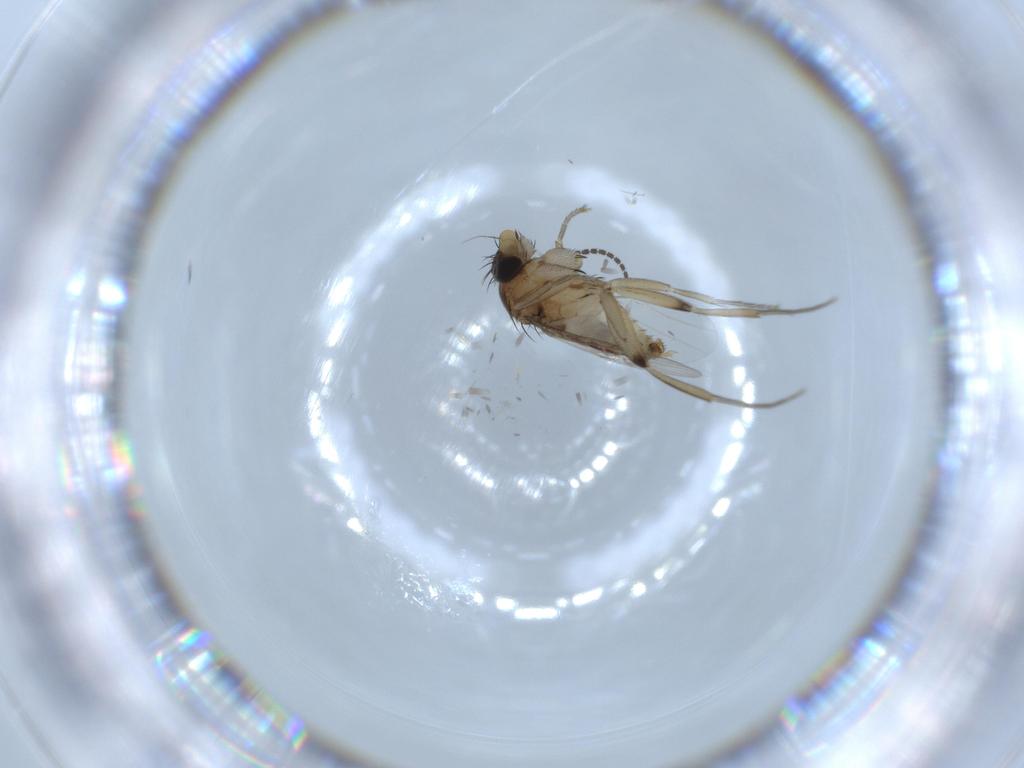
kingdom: Animalia
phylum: Arthropoda
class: Insecta
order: Diptera
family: Phoridae
